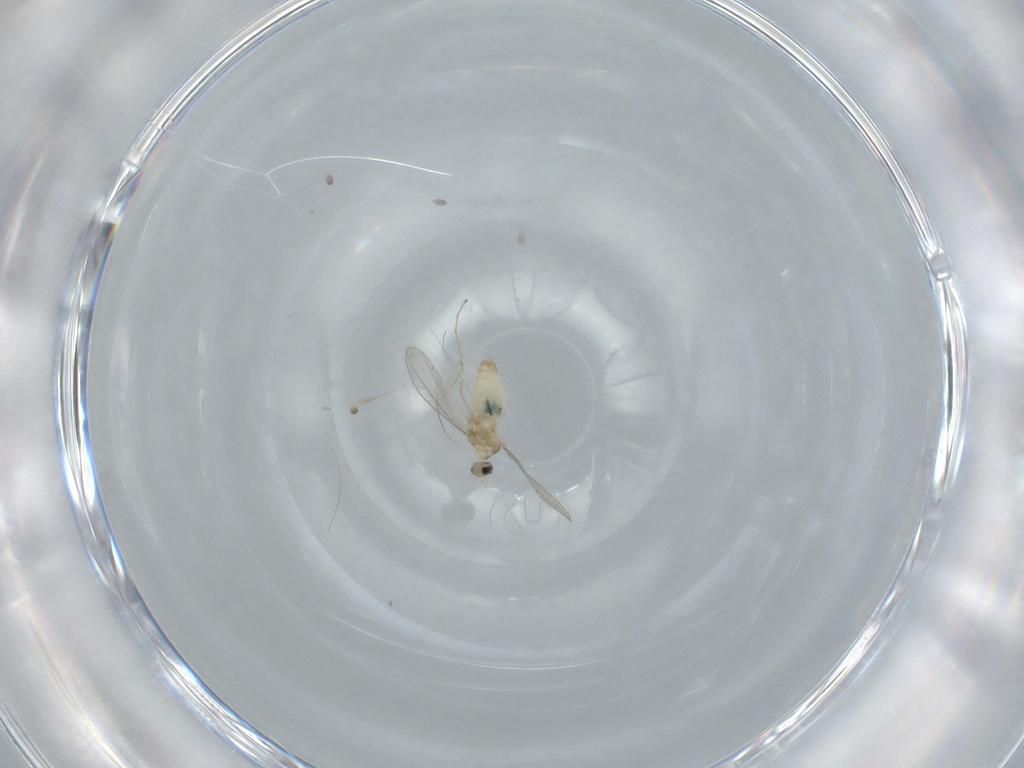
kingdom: Animalia
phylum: Arthropoda
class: Insecta
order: Diptera
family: Cecidomyiidae
